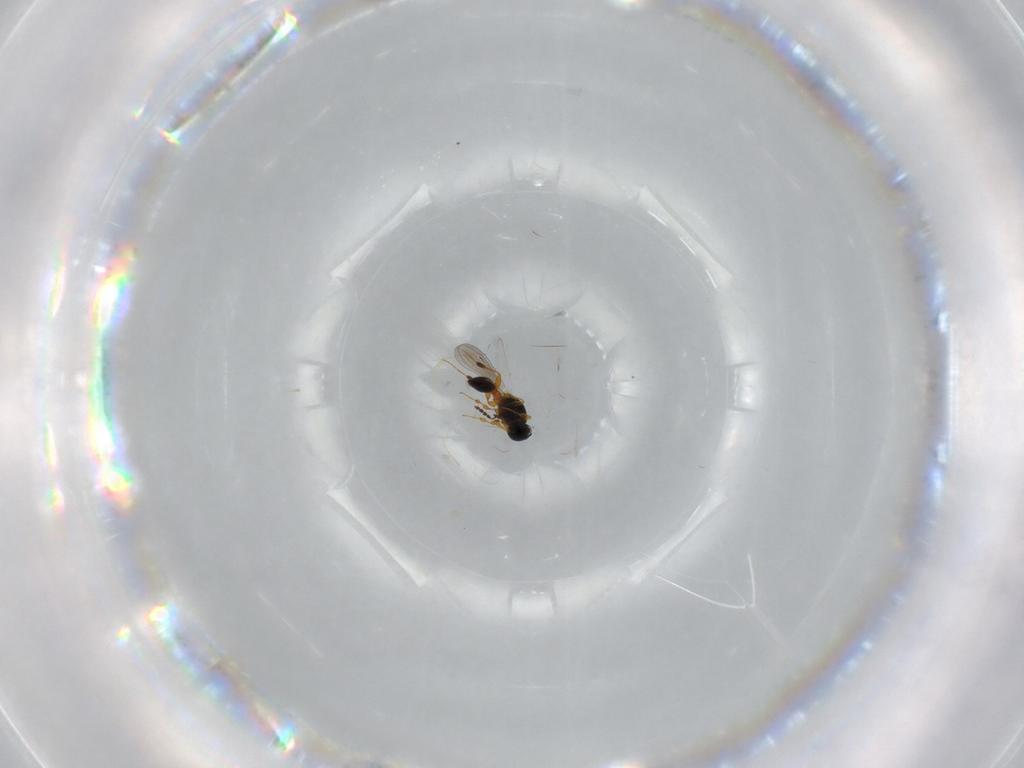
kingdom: Animalia
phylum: Arthropoda
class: Insecta
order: Hymenoptera
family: Platygastridae
